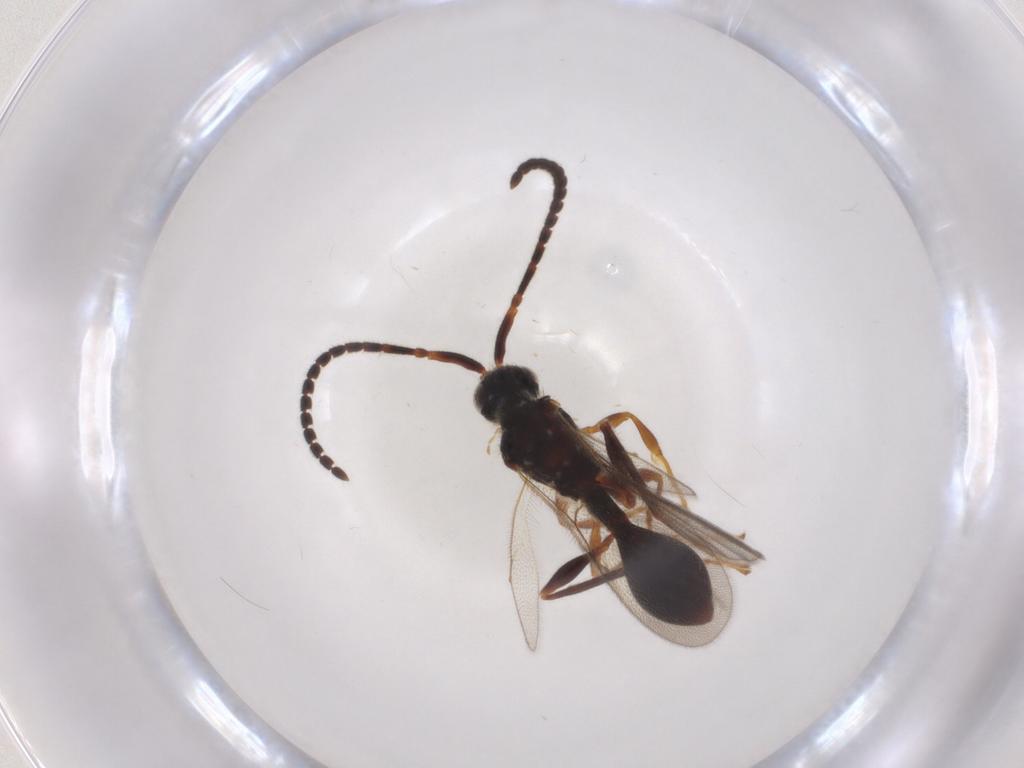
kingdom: Animalia
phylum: Arthropoda
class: Insecta
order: Hymenoptera
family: Diapriidae
